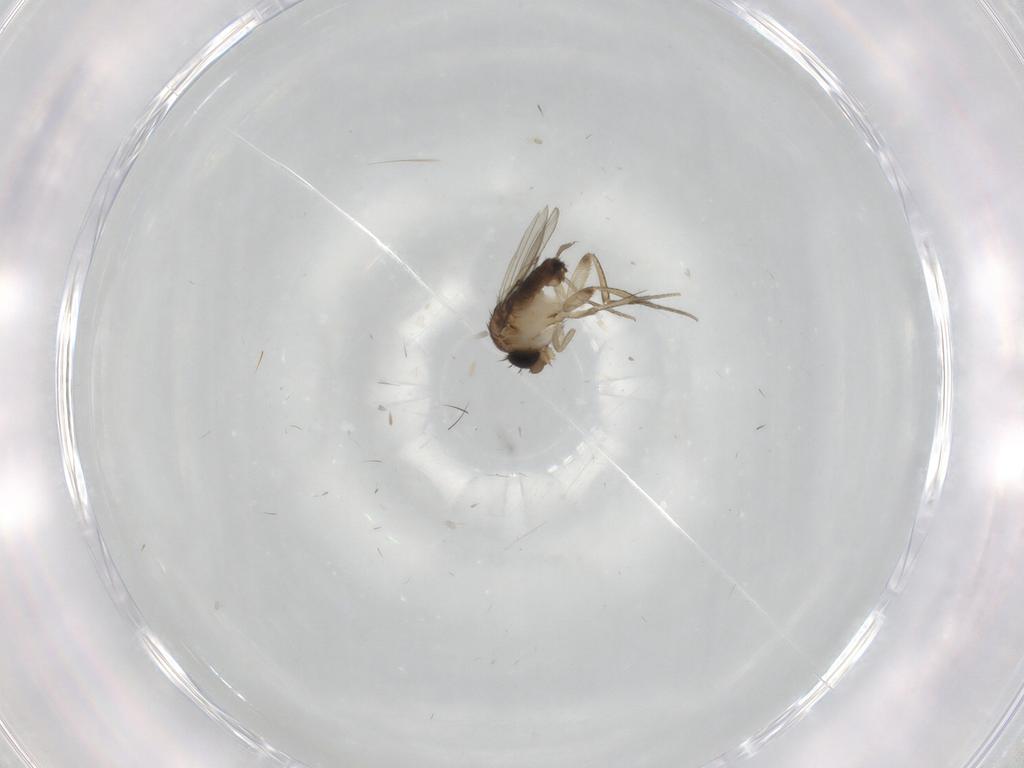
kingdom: Animalia
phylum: Arthropoda
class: Insecta
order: Diptera
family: Phoridae
